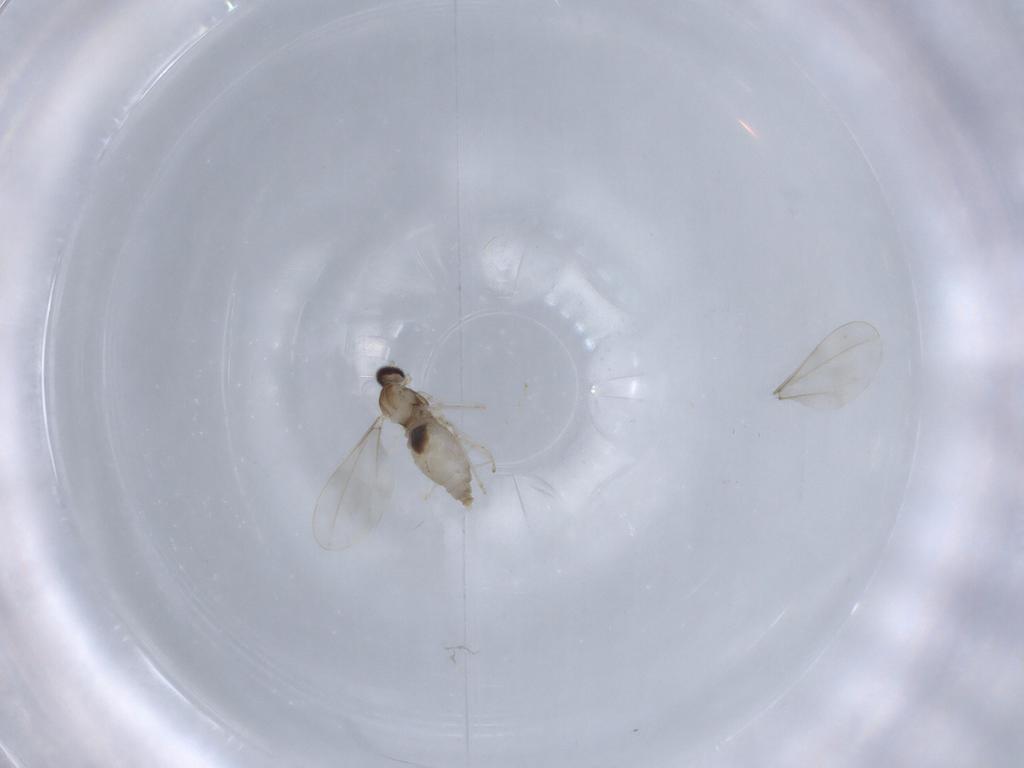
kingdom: Animalia
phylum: Arthropoda
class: Insecta
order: Diptera
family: Cecidomyiidae
